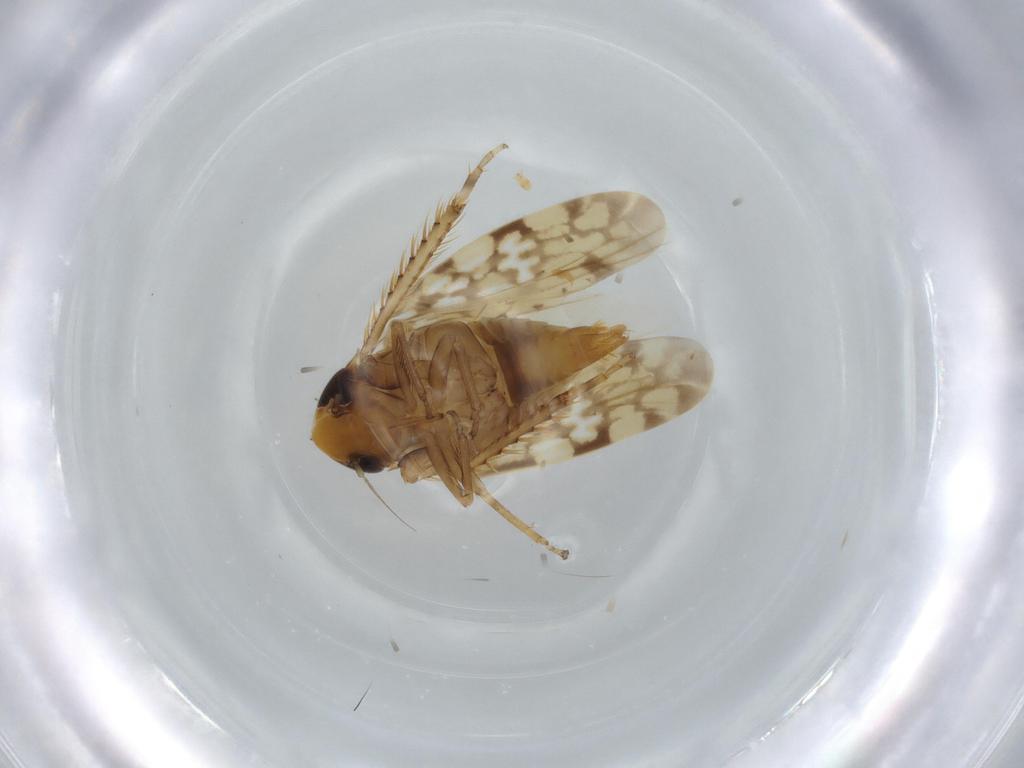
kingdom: Animalia
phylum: Arthropoda
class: Insecta
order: Hemiptera
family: Cicadellidae
